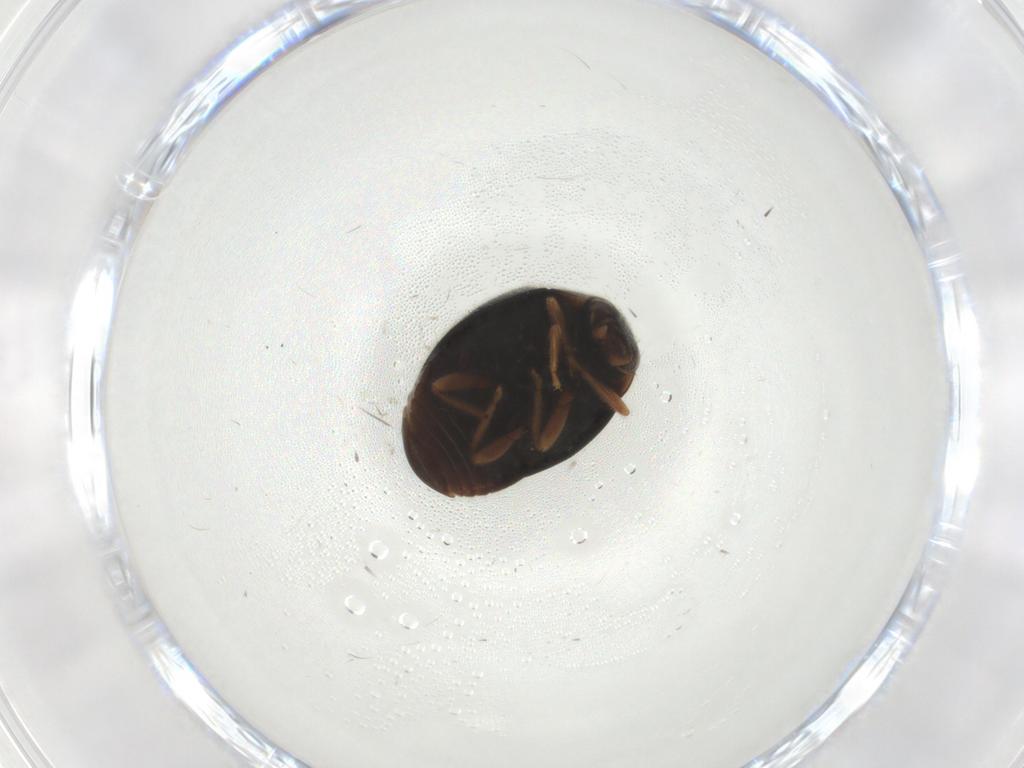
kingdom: Animalia
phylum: Arthropoda
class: Insecta
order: Coleoptera
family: Coccinellidae
